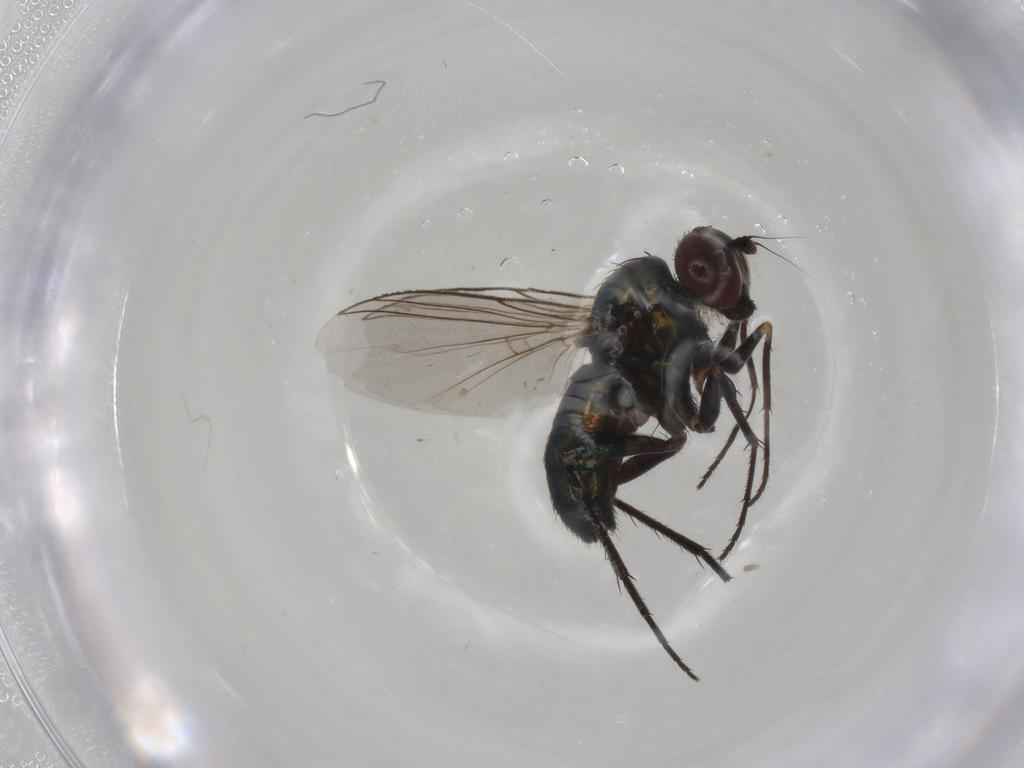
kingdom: Animalia
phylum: Arthropoda
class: Insecta
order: Diptera
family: Dolichopodidae
